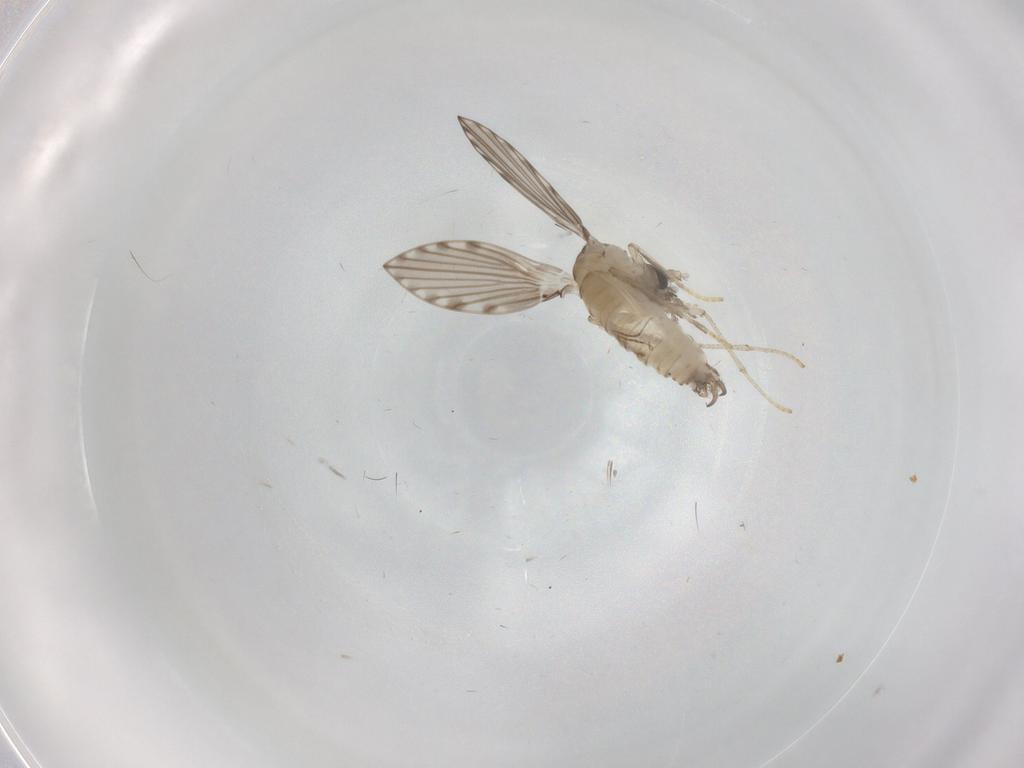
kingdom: Animalia
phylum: Arthropoda
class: Insecta
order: Diptera
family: Psychodidae
